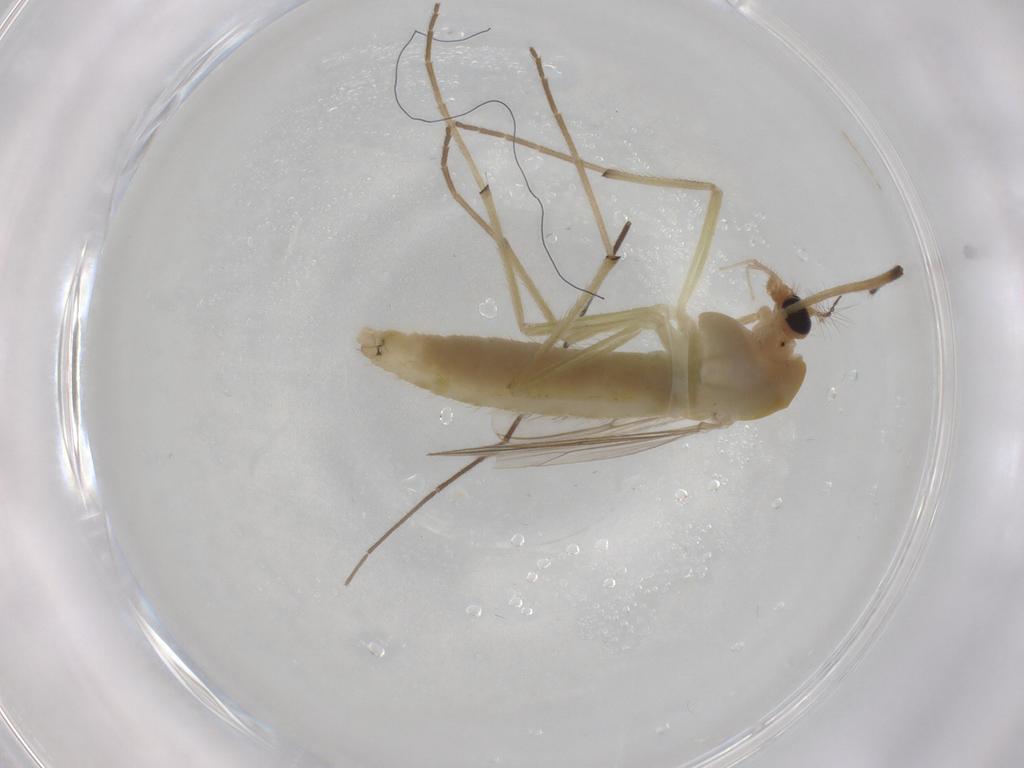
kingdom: Animalia
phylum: Arthropoda
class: Insecta
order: Diptera
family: Chironomidae
